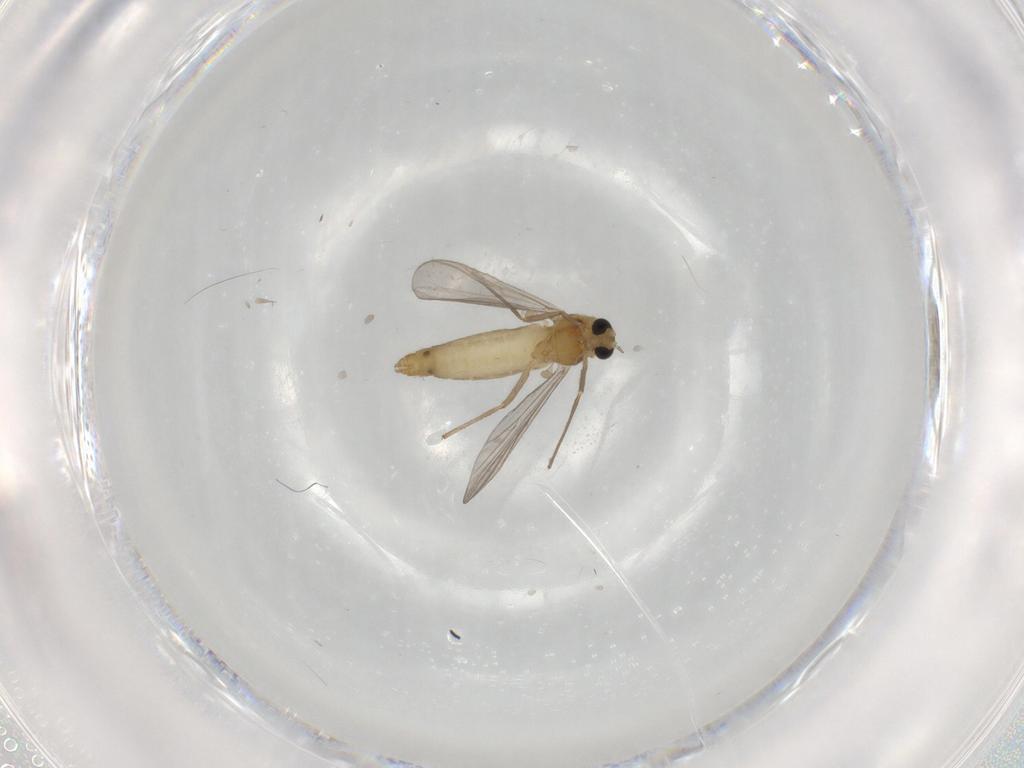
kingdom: Animalia
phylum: Arthropoda
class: Insecta
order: Diptera
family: Chironomidae
